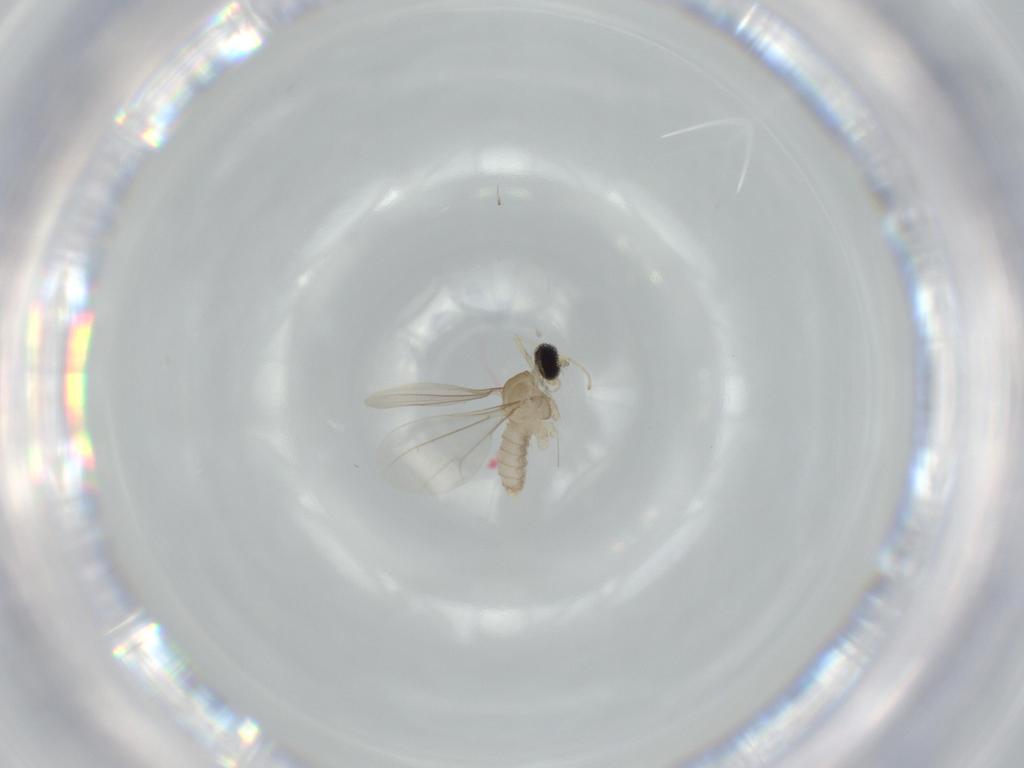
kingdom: Animalia
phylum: Arthropoda
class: Insecta
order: Diptera
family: Cecidomyiidae
